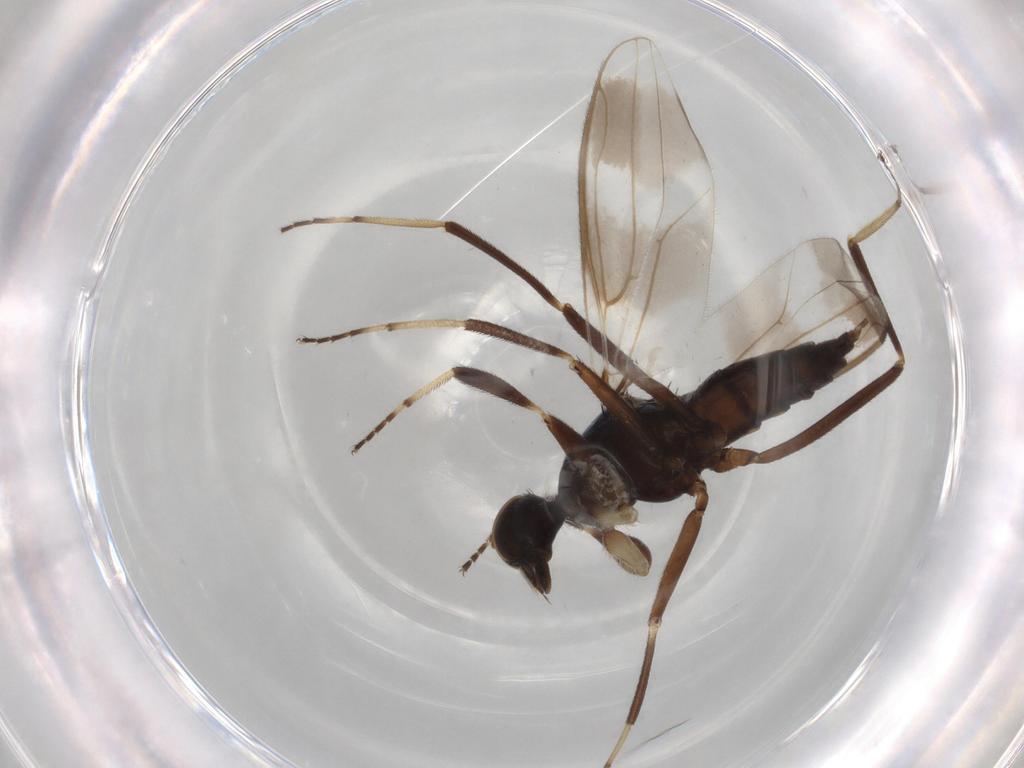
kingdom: Animalia
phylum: Arthropoda
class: Insecta
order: Diptera
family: Hybotidae
